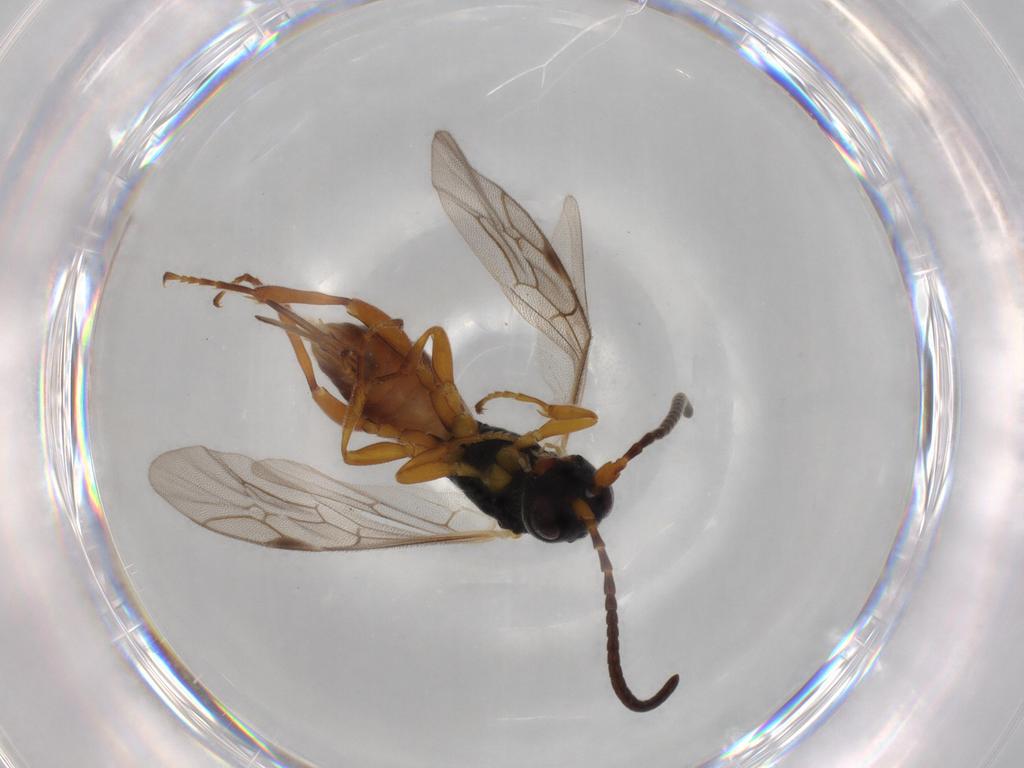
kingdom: Animalia
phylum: Arthropoda
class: Insecta
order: Hymenoptera
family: Ichneumonidae
